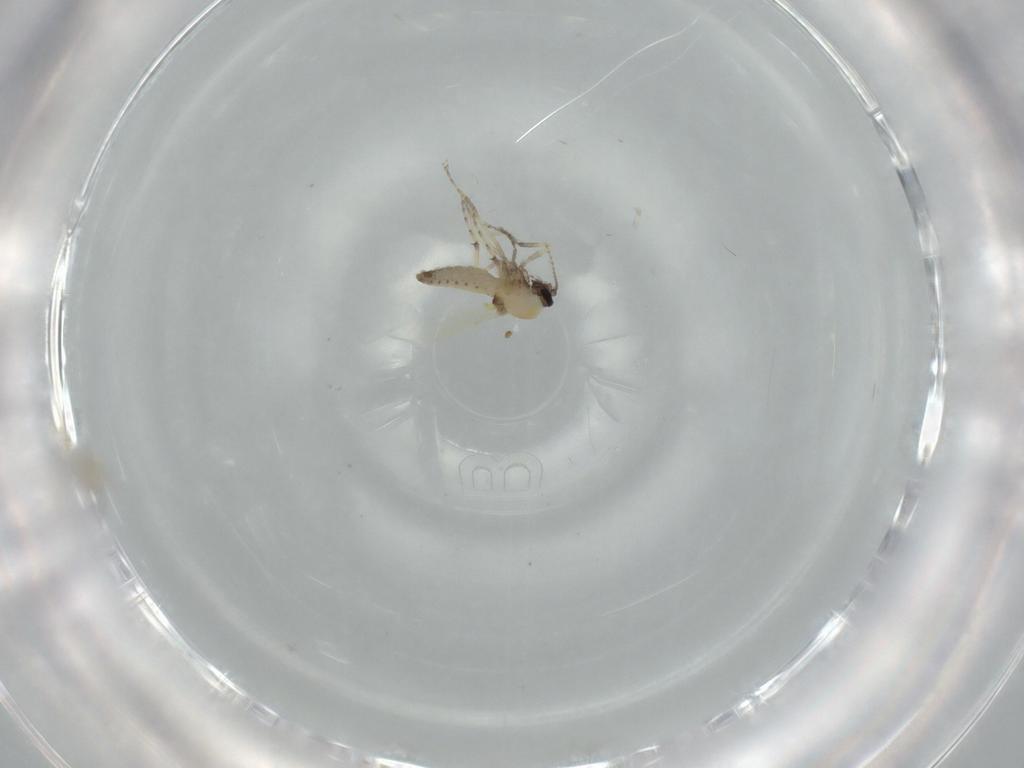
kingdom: Animalia
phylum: Arthropoda
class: Insecta
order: Diptera
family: Ceratopogonidae
